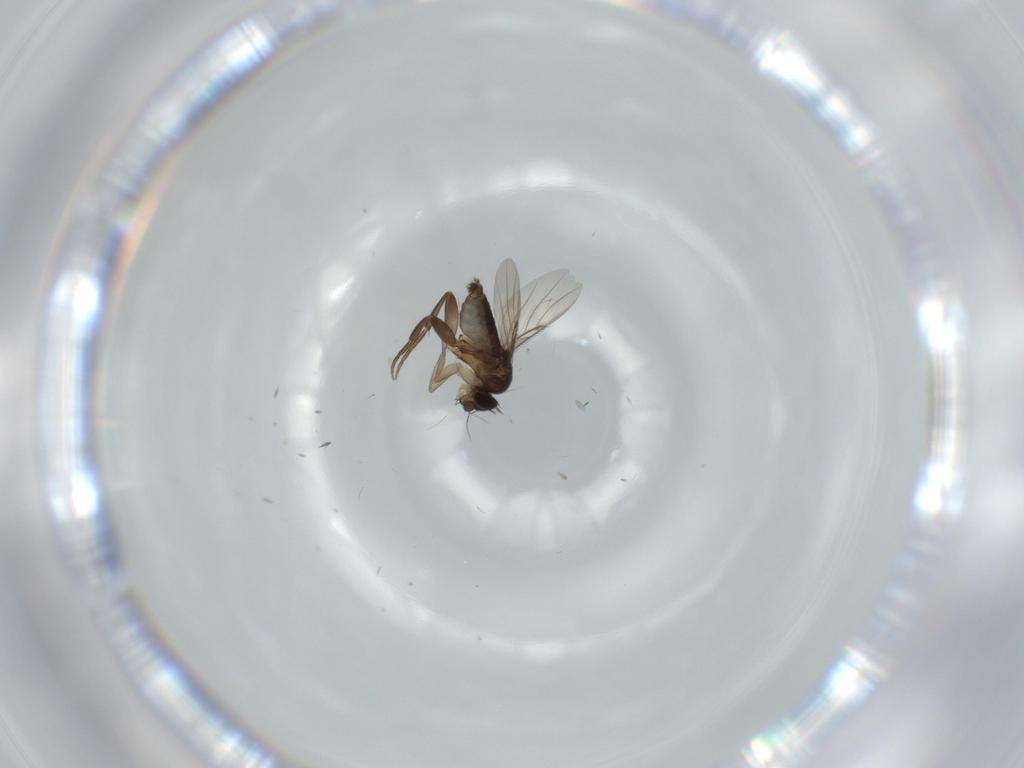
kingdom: Animalia
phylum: Arthropoda
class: Insecta
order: Diptera
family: Phoridae
